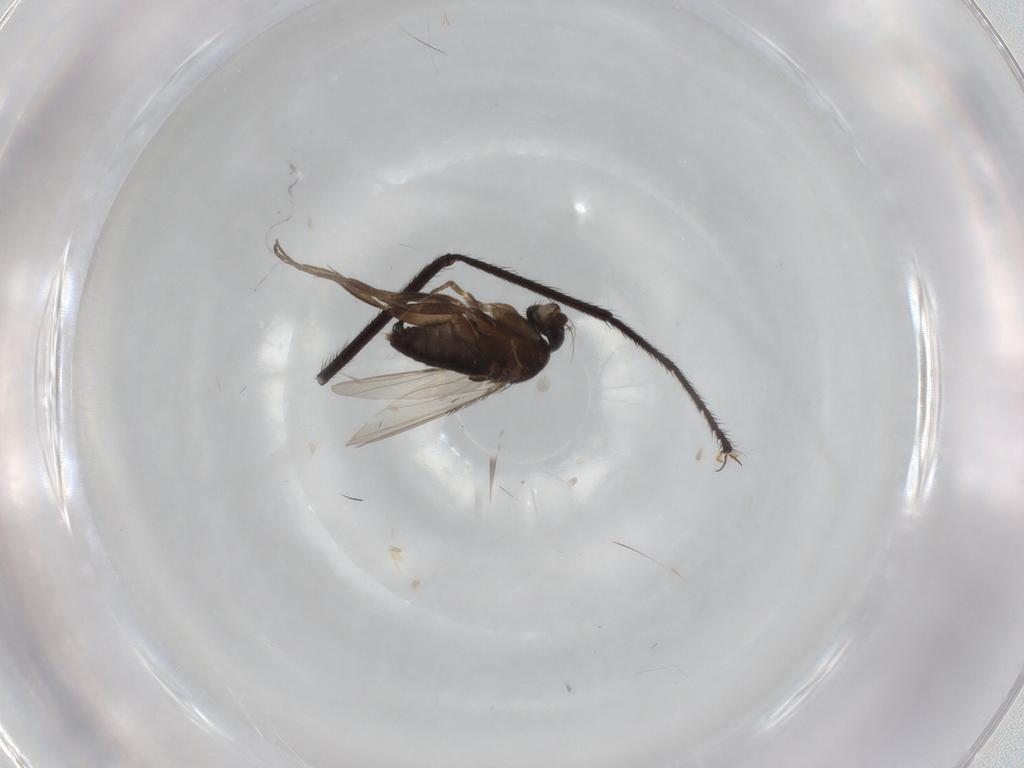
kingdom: Animalia
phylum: Arthropoda
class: Insecta
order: Diptera
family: Phoridae
